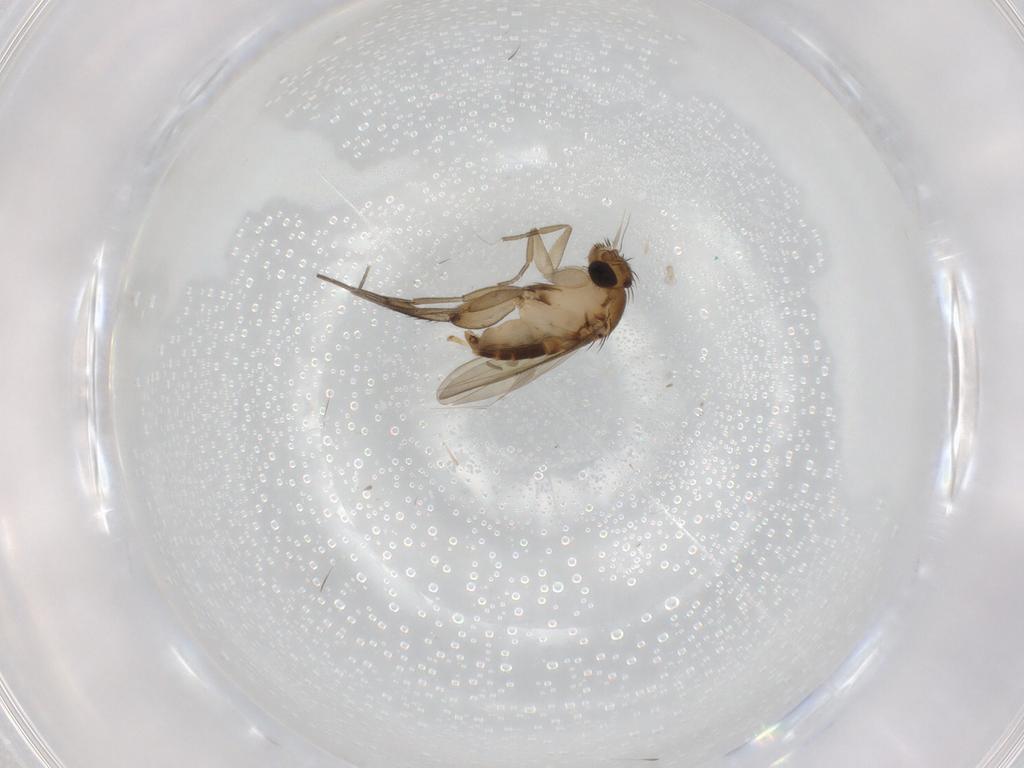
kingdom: Animalia
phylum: Arthropoda
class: Insecta
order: Diptera
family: Phoridae
